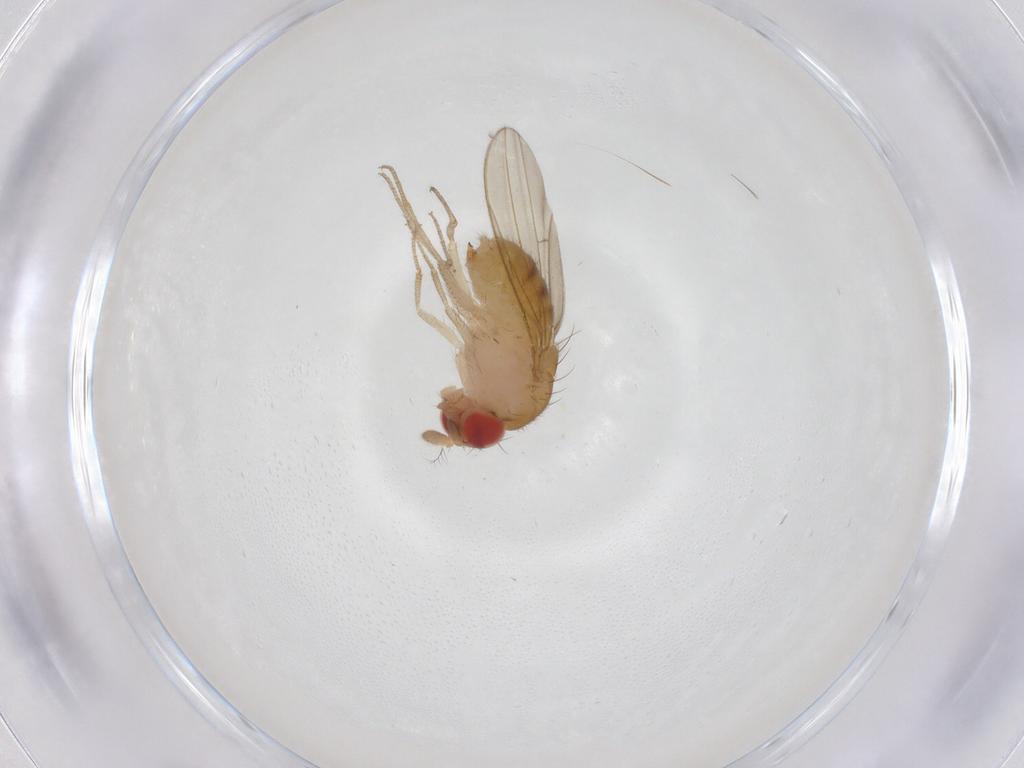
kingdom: Animalia
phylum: Arthropoda
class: Insecta
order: Diptera
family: Drosophilidae
